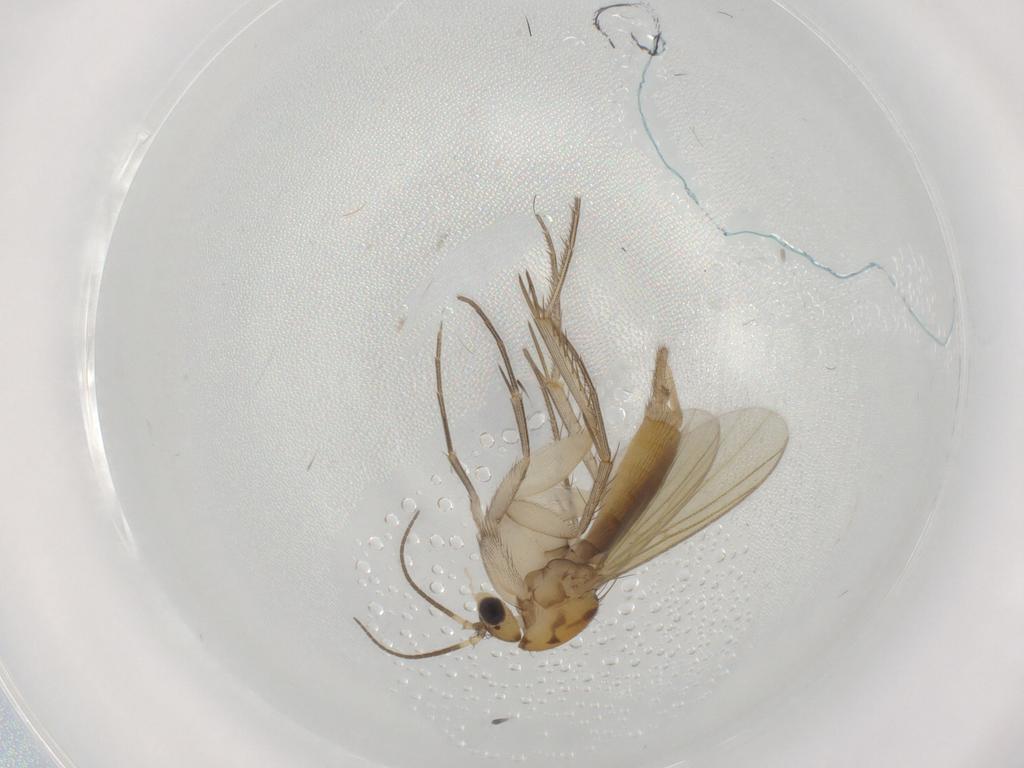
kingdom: Animalia
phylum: Arthropoda
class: Insecta
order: Diptera
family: Mycetophilidae
